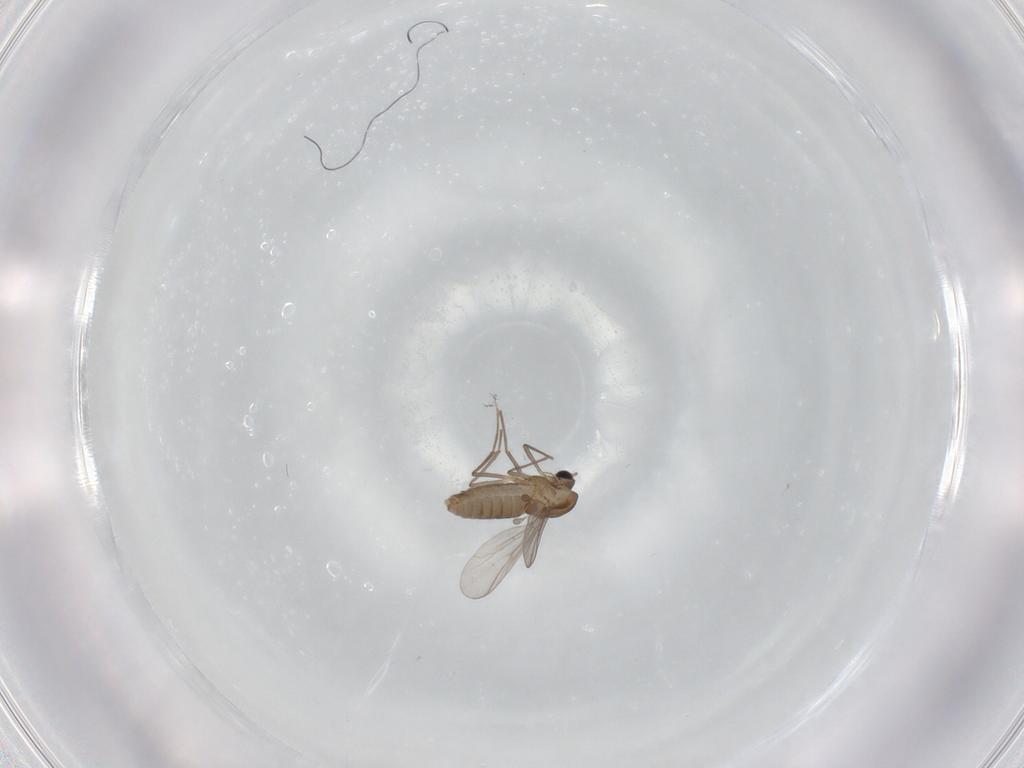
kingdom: Animalia
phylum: Arthropoda
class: Insecta
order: Diptera
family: Chironomidae
